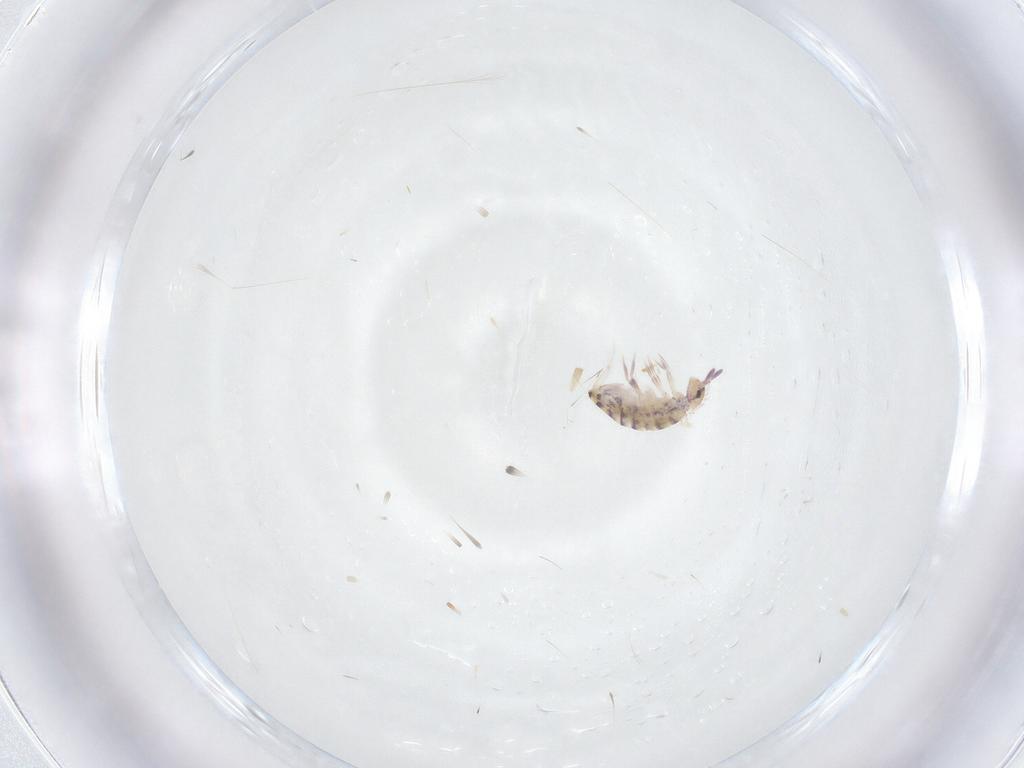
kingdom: Animalia
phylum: Arthropoda
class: Collembola
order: Entomobryomorpha
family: Entomobryidae
